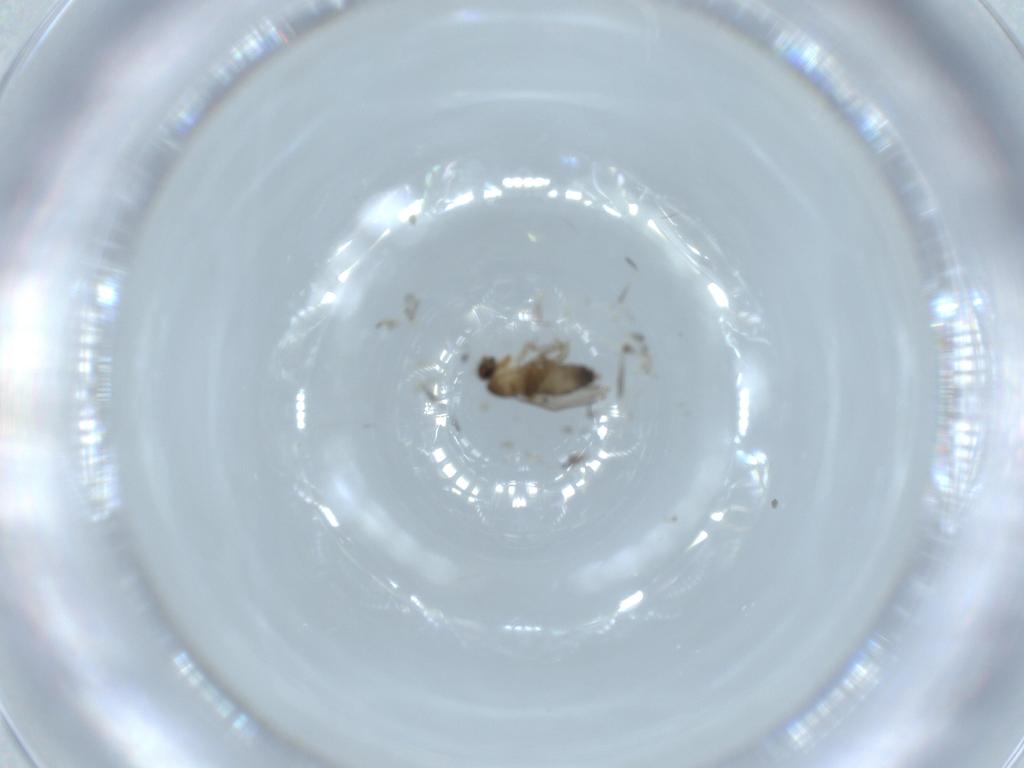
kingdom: Animalia
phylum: Arthropoda
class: Insecta
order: Diptera
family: Phoridae
